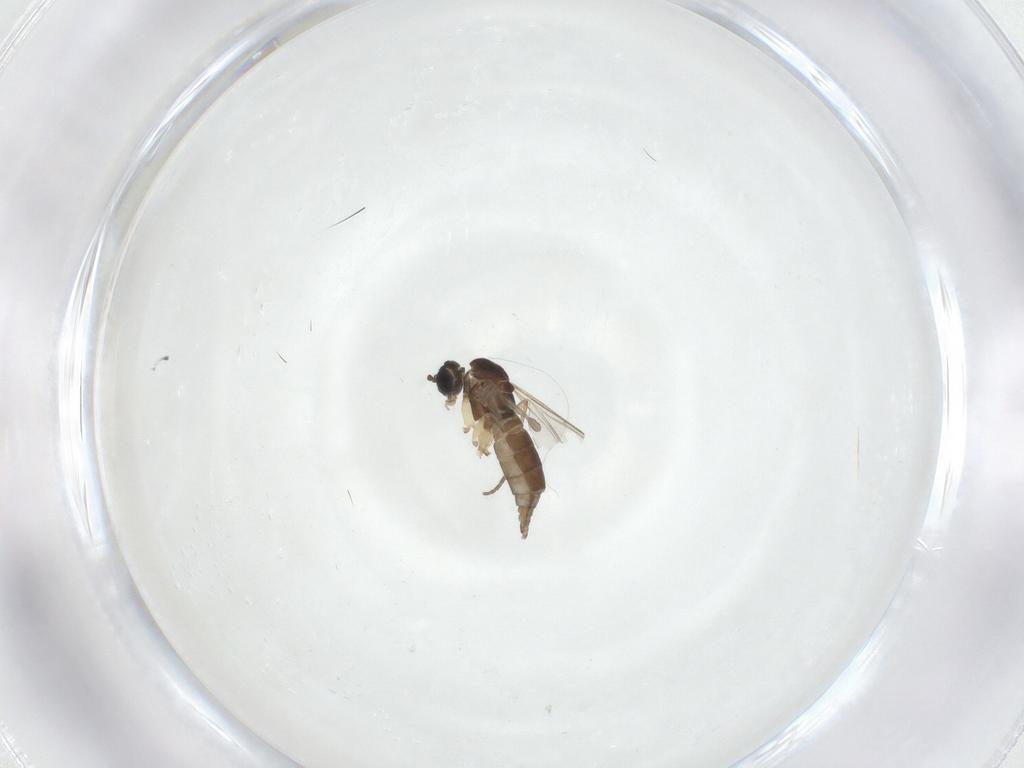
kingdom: Animalia
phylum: Arthropoda
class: Insecta
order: Diptera
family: Sciaridae
